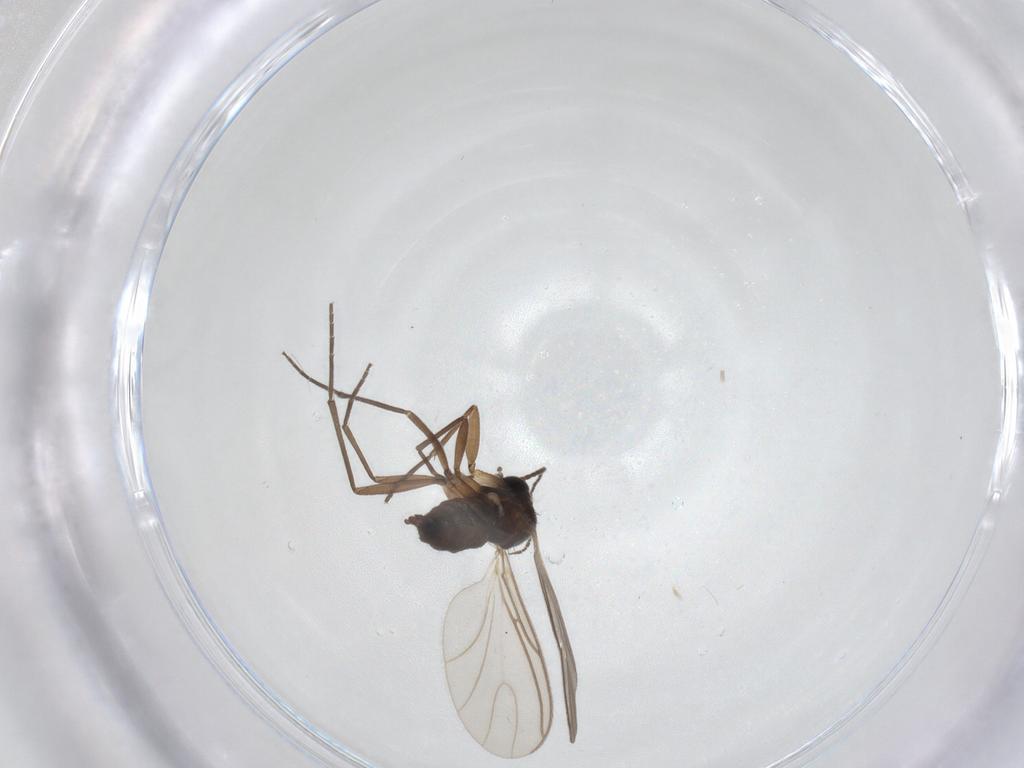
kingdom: Animalia
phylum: Arthropoda
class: Insecta
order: Diptera
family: Sciaridae
